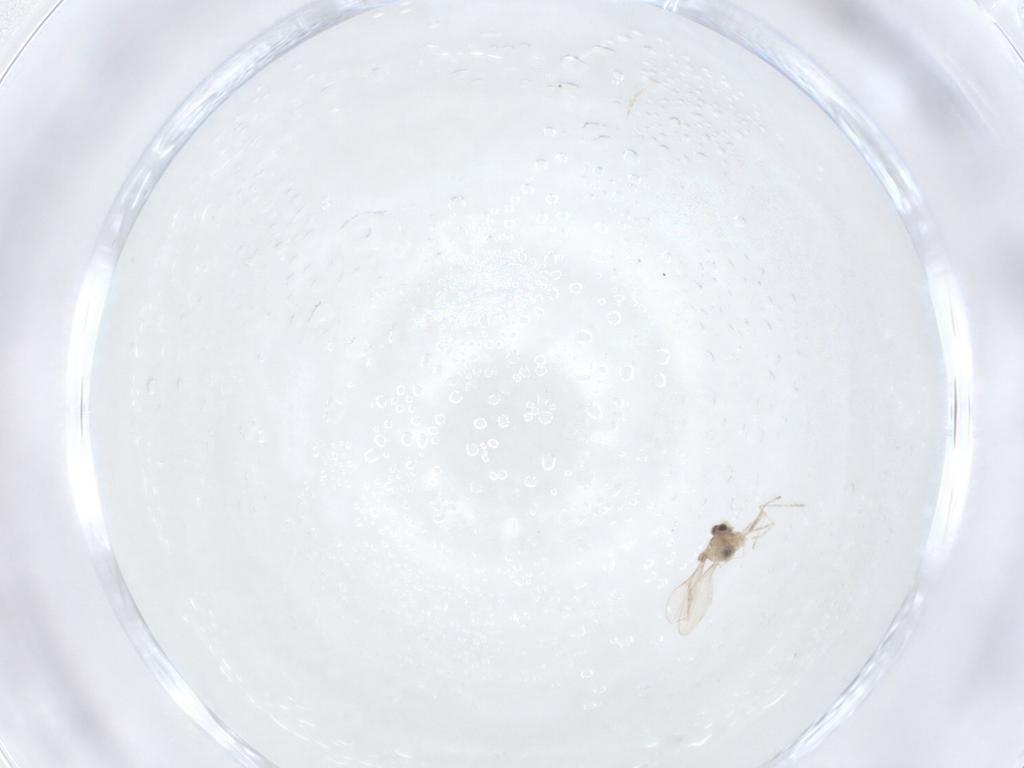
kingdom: Animalia
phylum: Arthropoda
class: Insecta
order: Diptera
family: Cecidomyiidae
